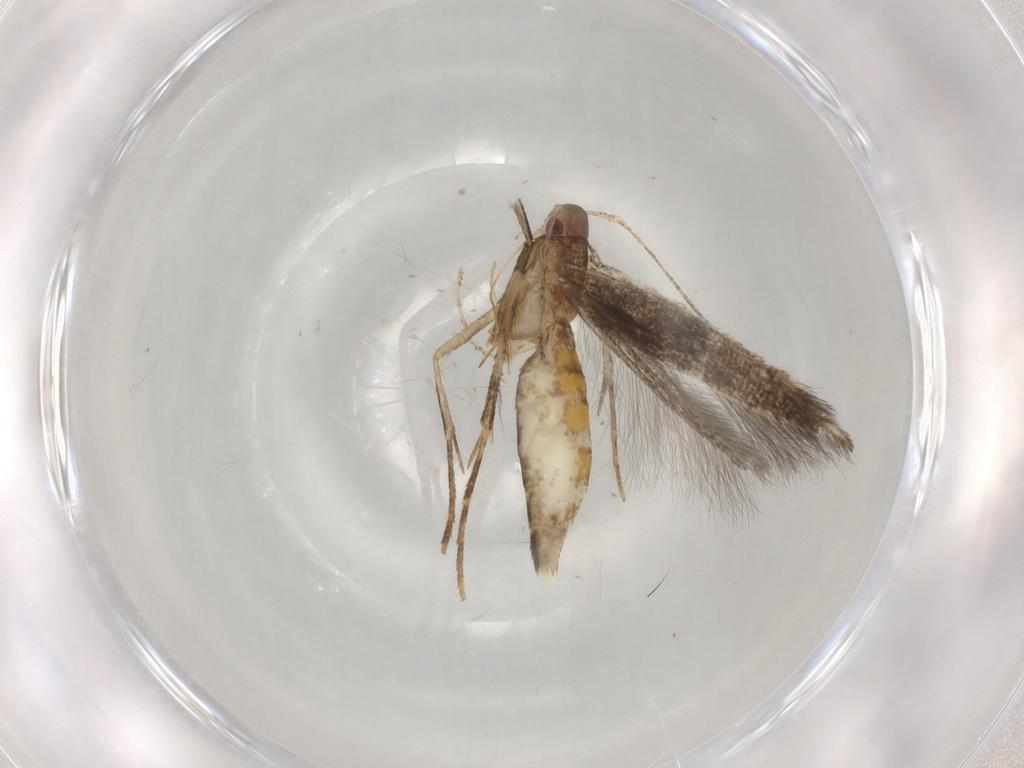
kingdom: Animalia
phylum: Arthropoda
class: Insecta
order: Lepidoptera
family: Cosmopterigidae
